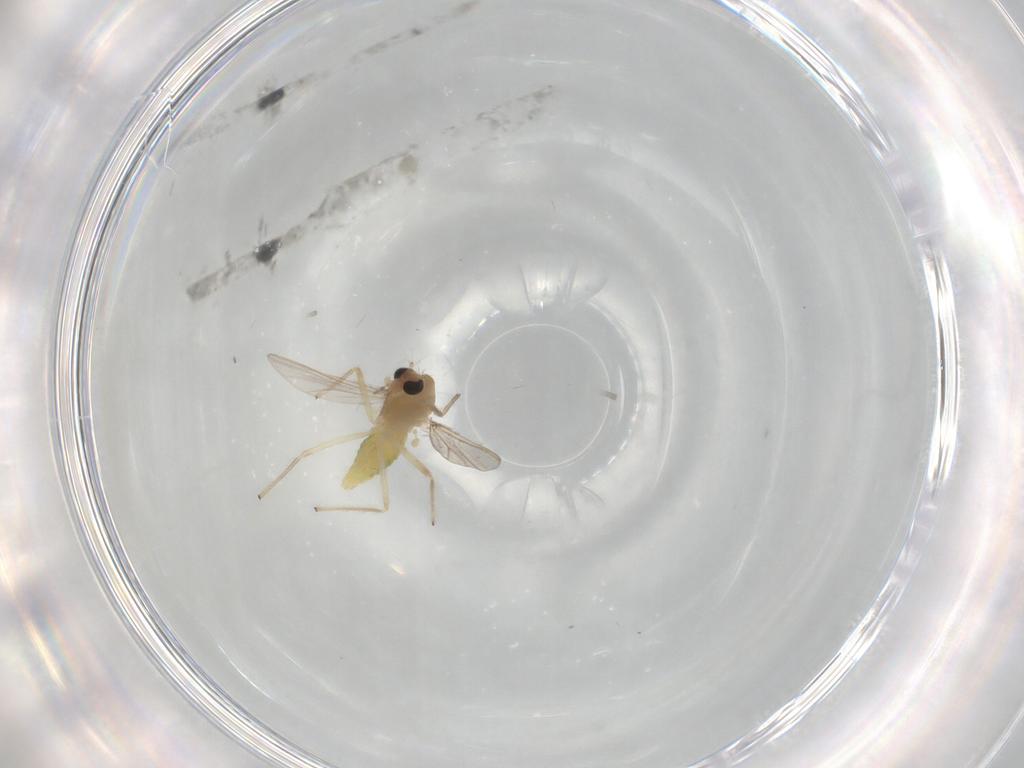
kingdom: Animalia
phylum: Arthropoda
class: Insecta
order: Diptera
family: Chironomidae
